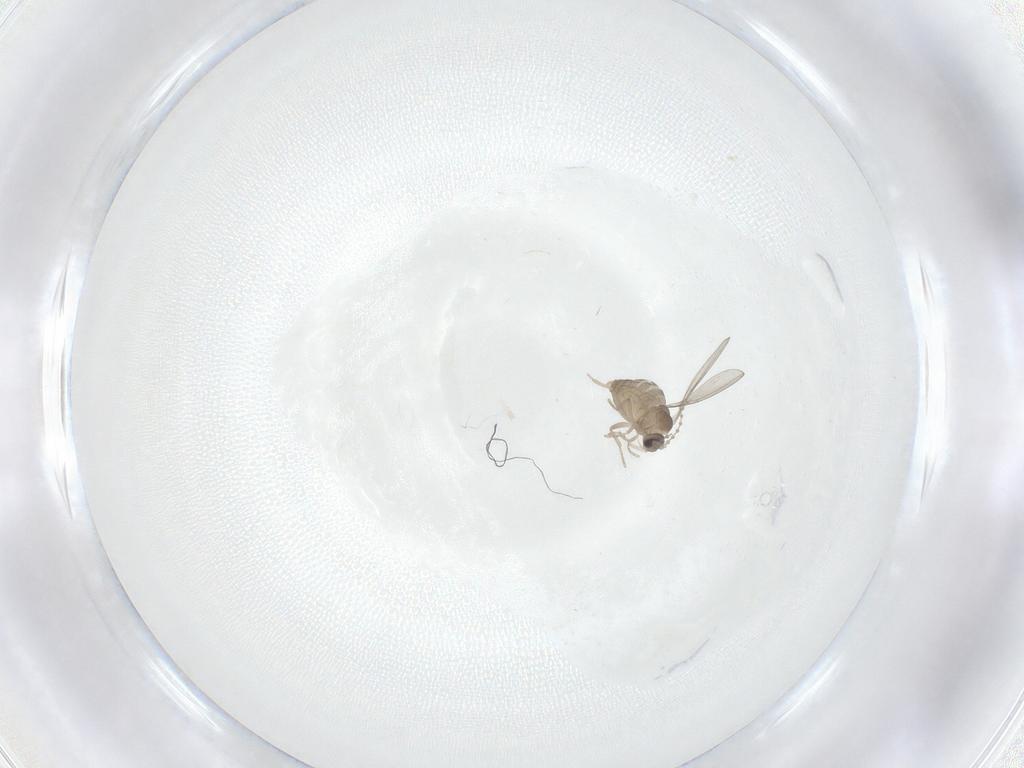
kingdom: Animalia
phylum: Arthropoda
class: Insecta
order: Diptera
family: Cecidomyiidae
